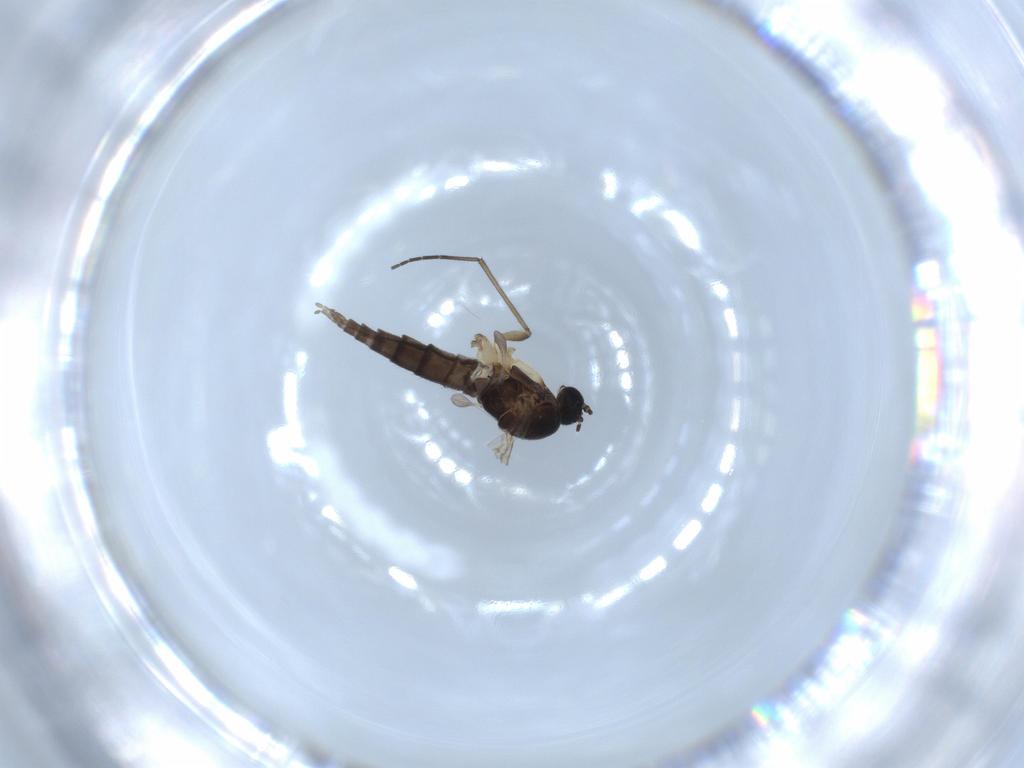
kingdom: Animalia
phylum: Arthropoda
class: Insecta
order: Diptera
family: Sciaridae
